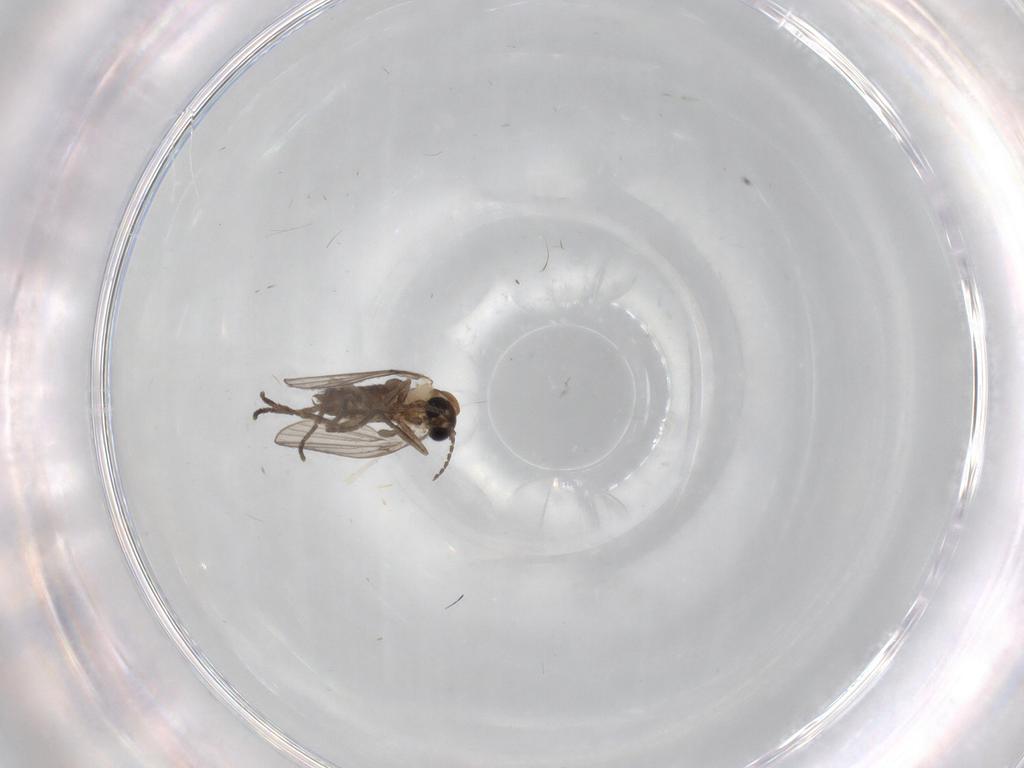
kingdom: Animalia
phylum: Arthropoda
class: Insecta
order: Diptera
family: Psychodidae
